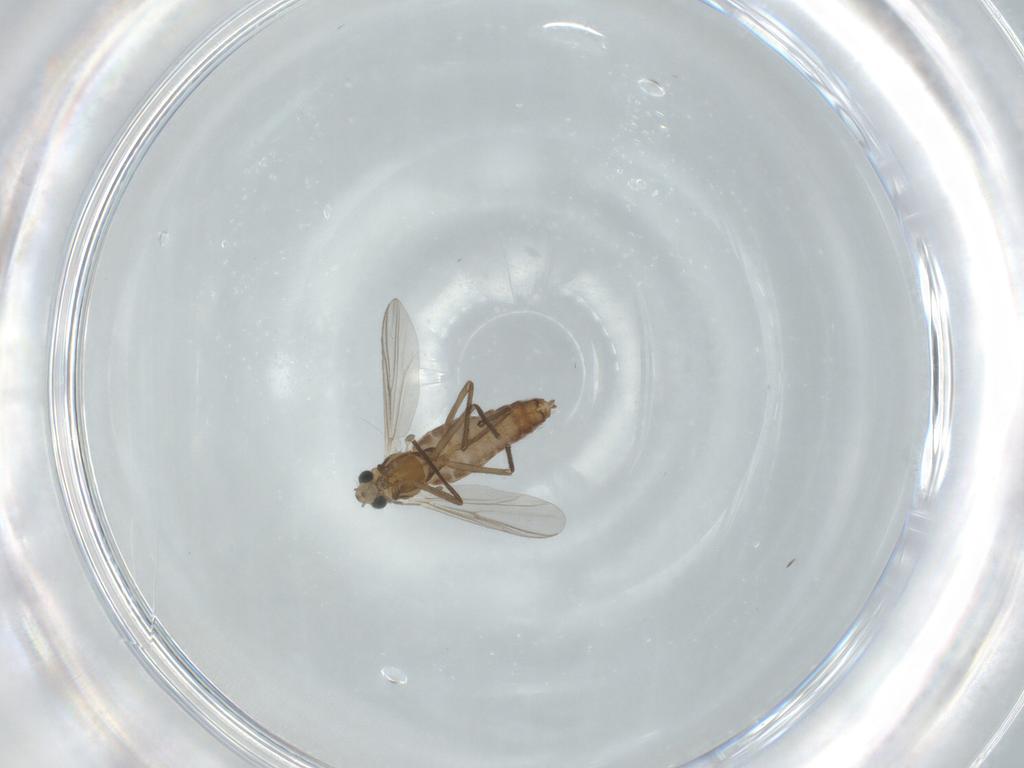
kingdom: Animalia
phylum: Arthropoda
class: Insecta
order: Diptera
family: Chironomidae
